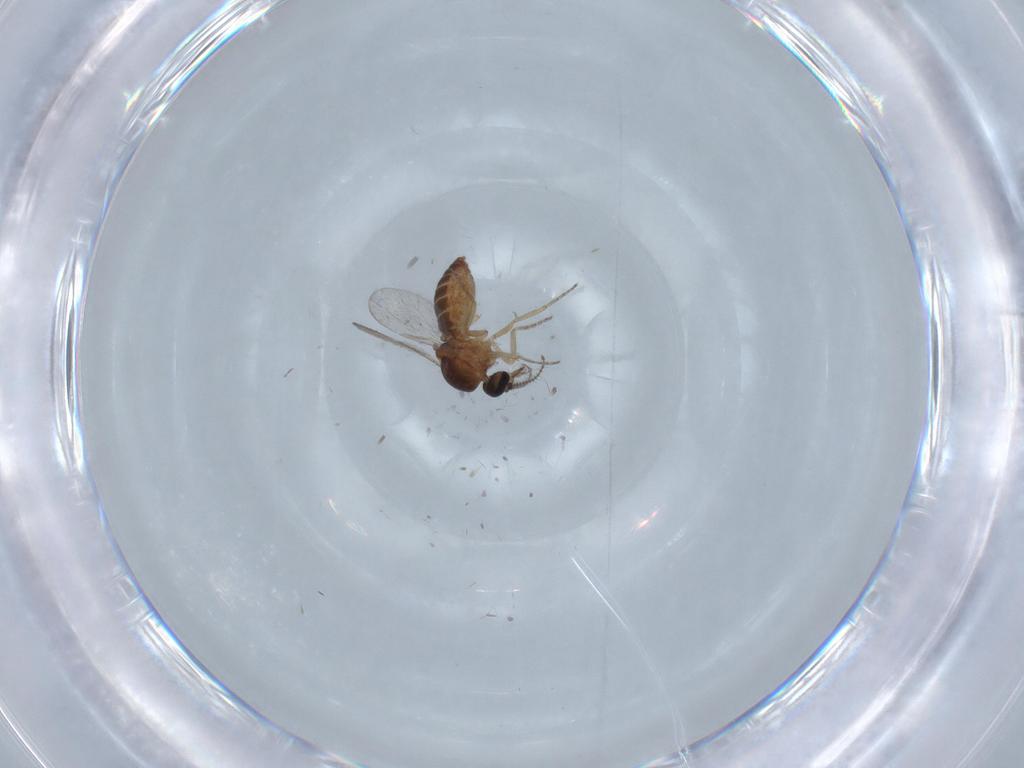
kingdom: Animalia
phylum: Arthropoda
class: Insecta
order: Diptera
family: Ceratopogonidae
